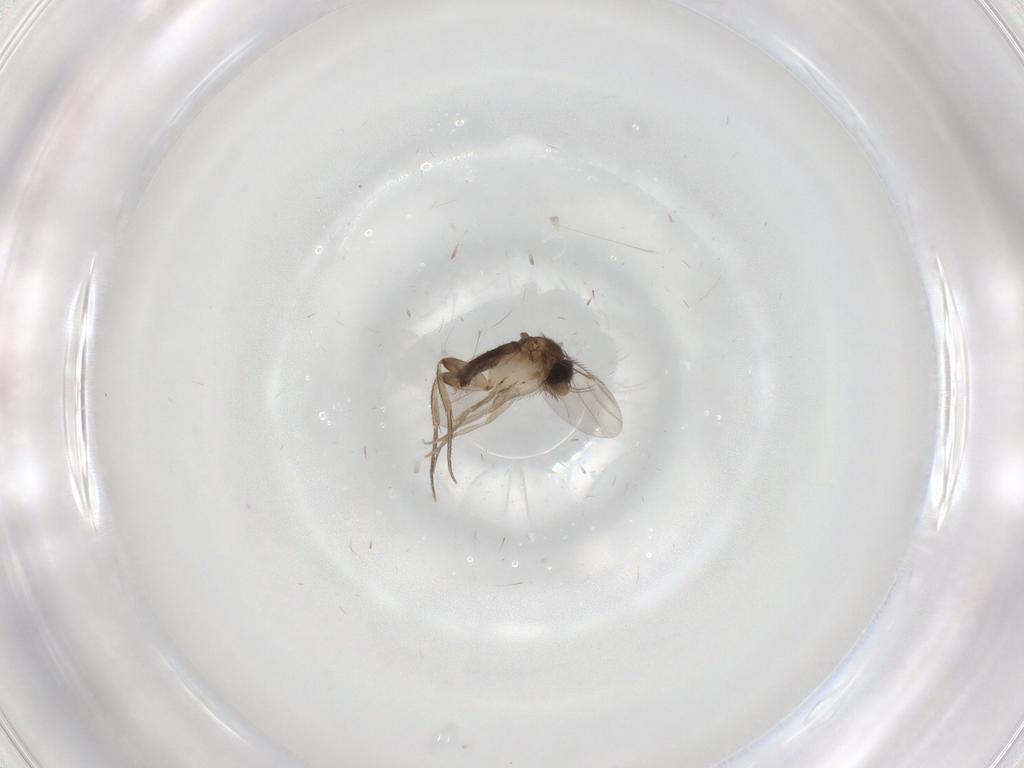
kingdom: Animalia
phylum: Arthropoda
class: Insecta
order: Diptera
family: Phoridae
